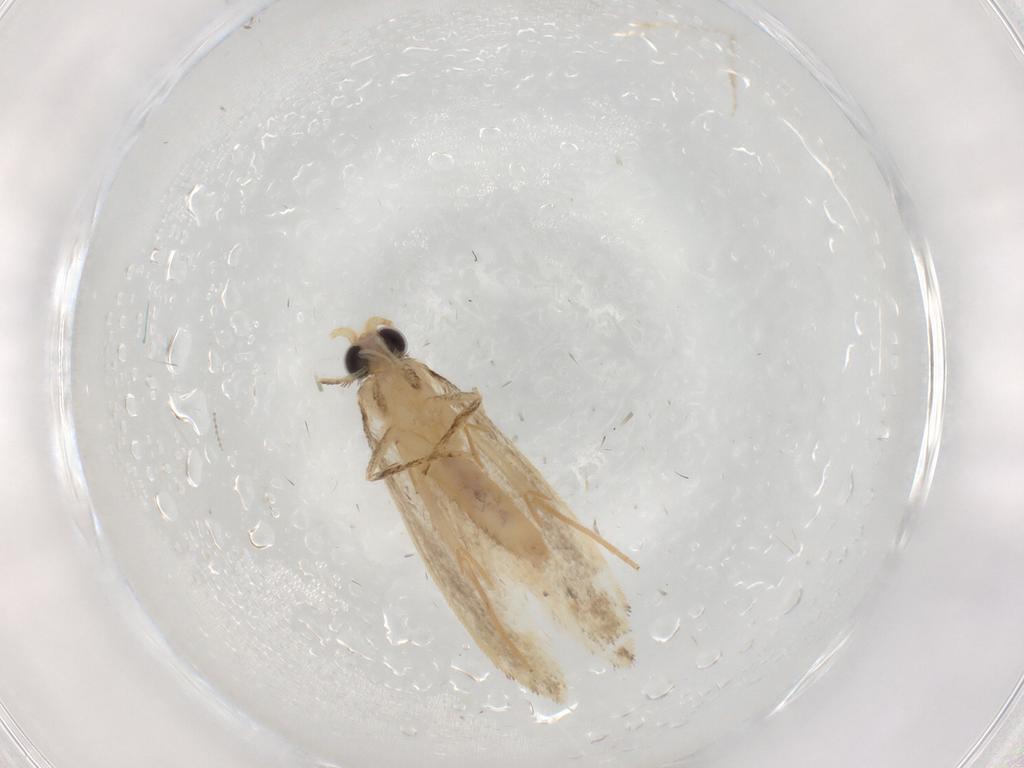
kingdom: Animalia
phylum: Arthropoda
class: Insecta
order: Lepidoptera
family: Nepticulidae
